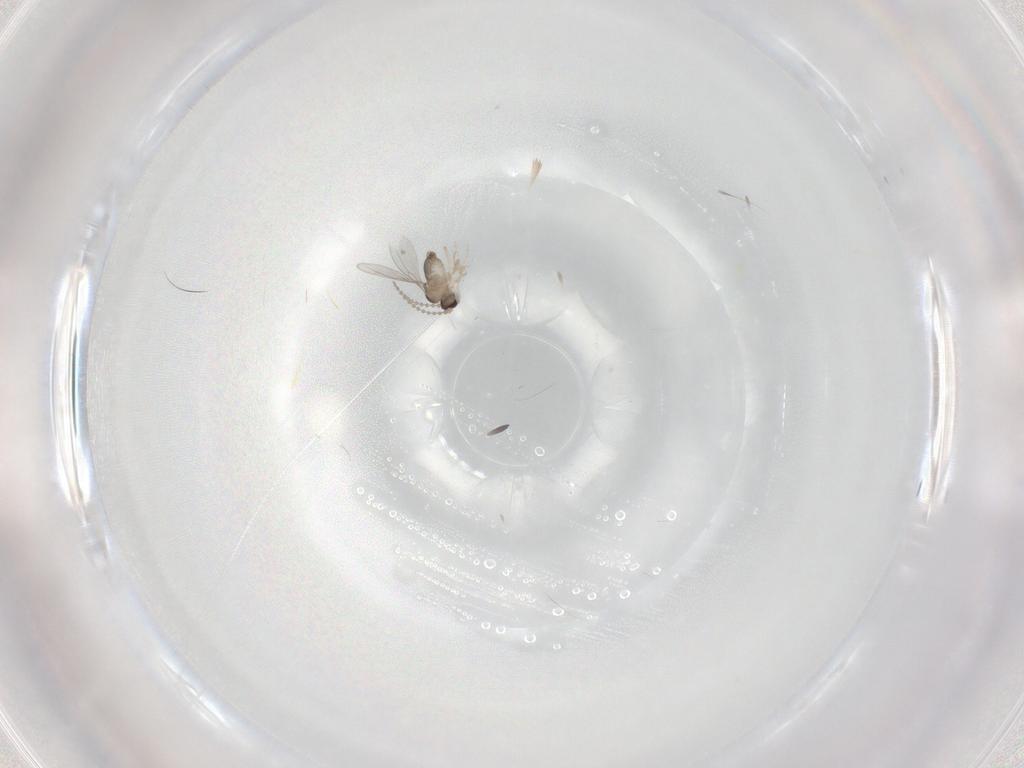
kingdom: Animalia
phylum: Arthropoda
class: Insecta
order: Diptera
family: Cecidomyiidae
